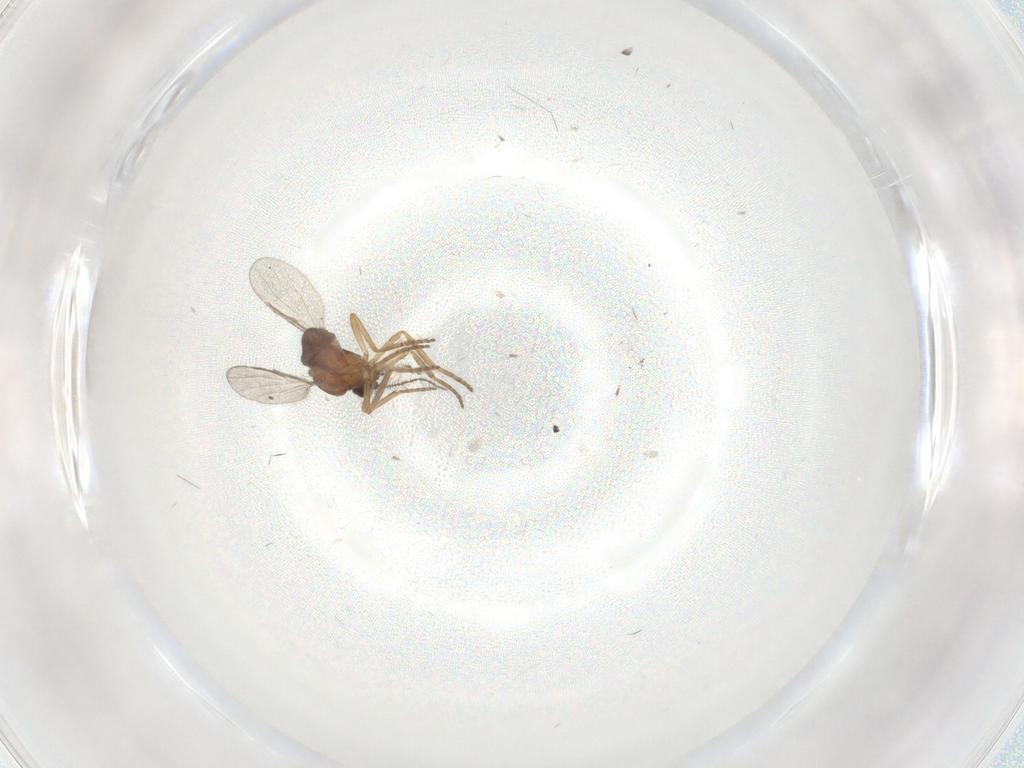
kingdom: Animalia
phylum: Arthropoda
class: Insecta
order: Diptera
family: Ceratopogonidae
